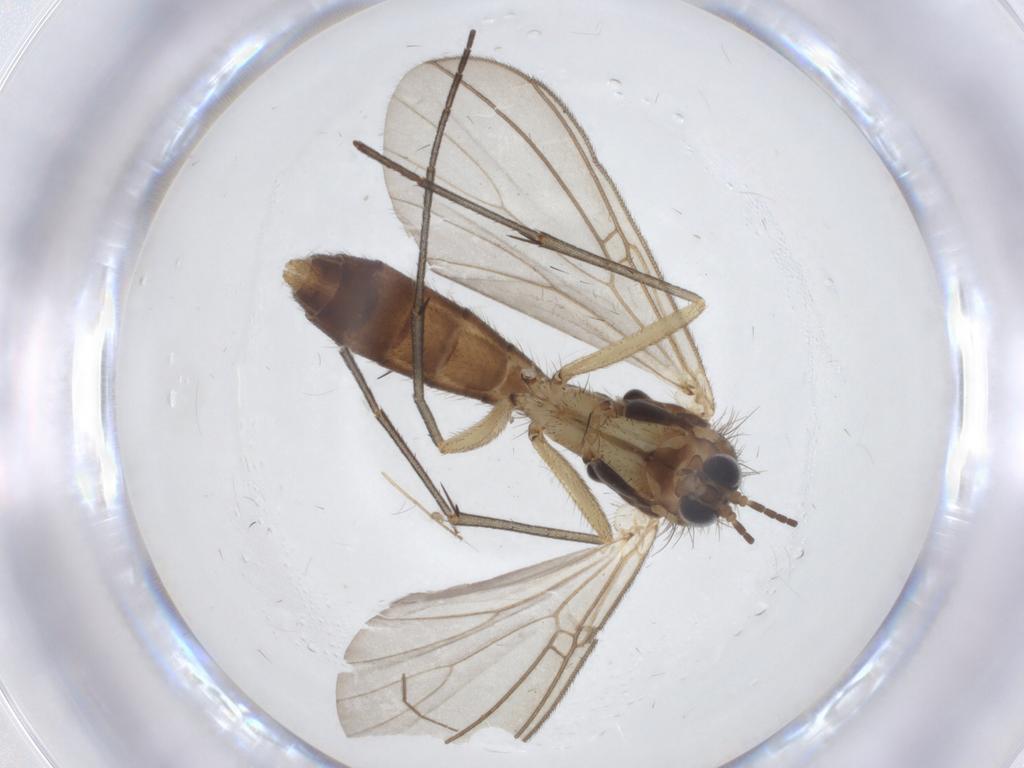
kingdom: Animalia
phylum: Arthropoda
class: Insecta
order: Diptera
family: Mycetophilidae
